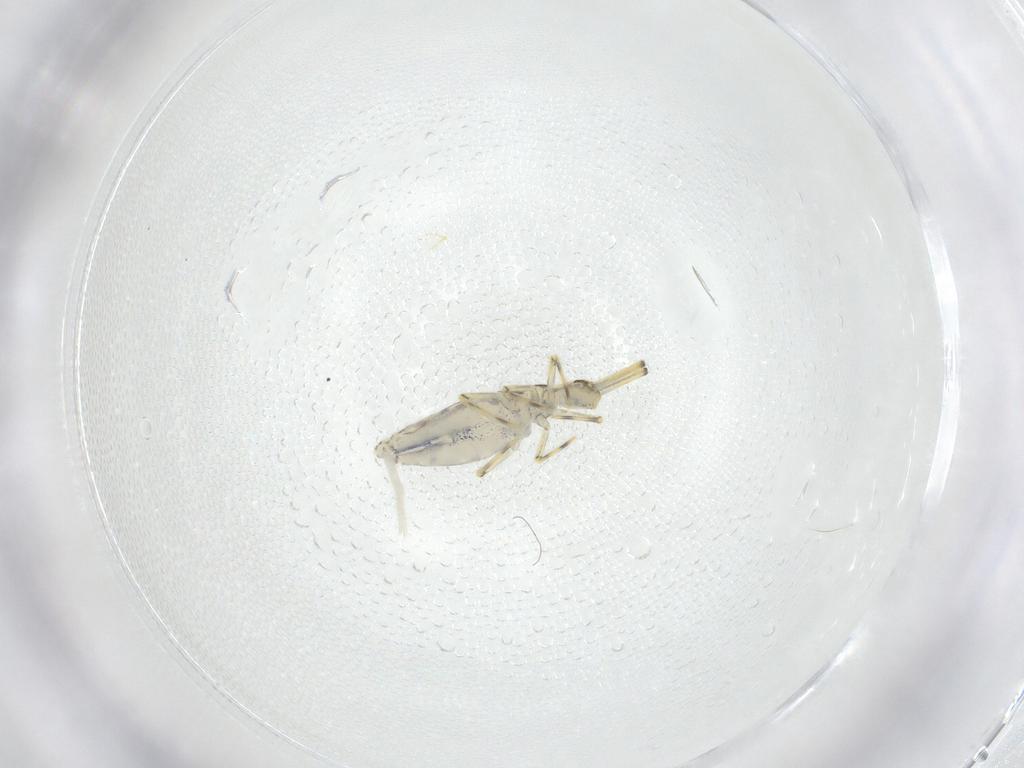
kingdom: Animalia
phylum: Arthropoda
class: Collembola
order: Entomobryomorpha
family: Paronellidae
